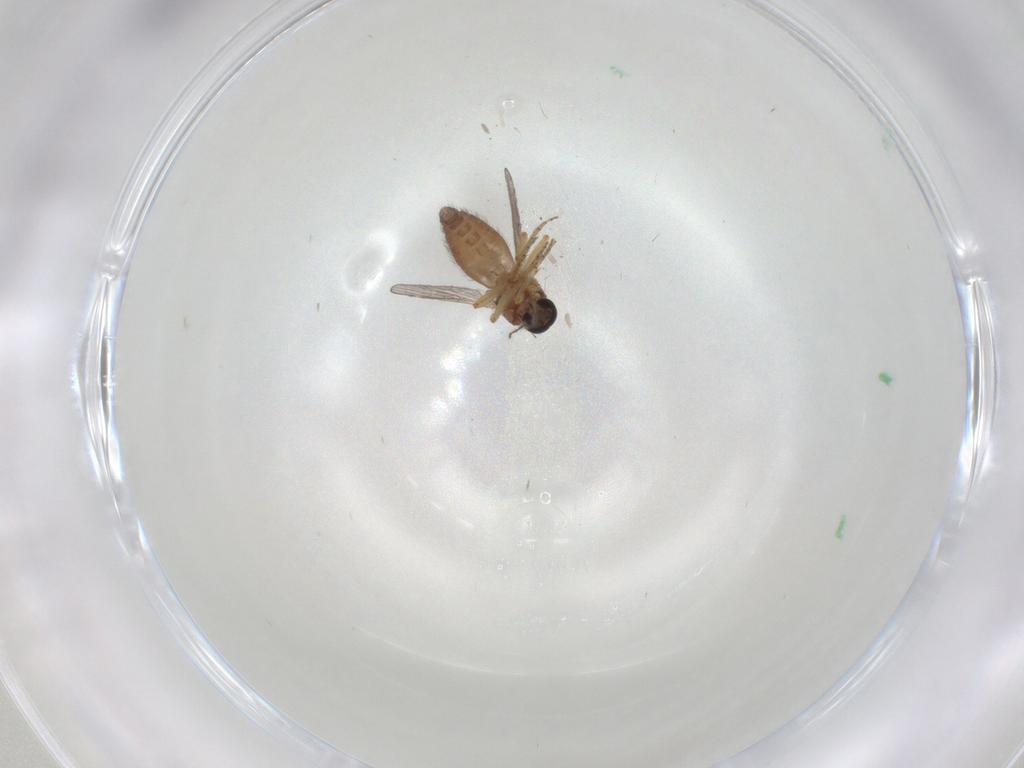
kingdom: Animalia
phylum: Arthropoda
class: Insecta
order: Diptera
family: Ceratopogonidae
